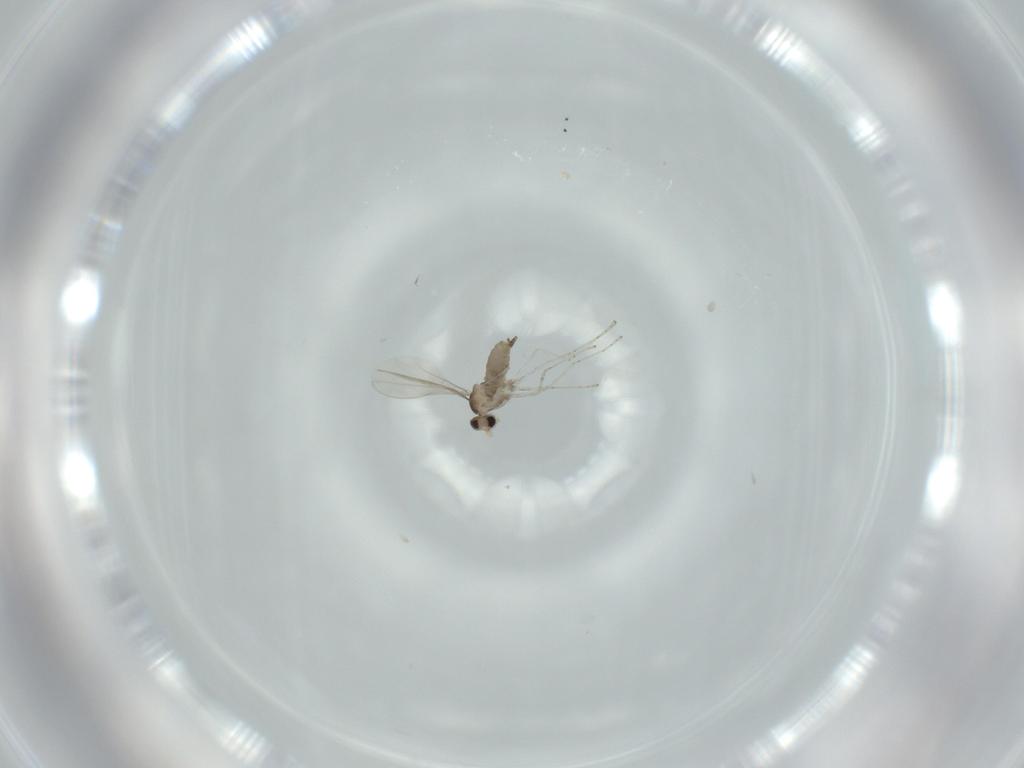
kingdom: Animalia
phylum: Arthropoda
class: Insecta
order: Diptera
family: Cecidomyiidae
